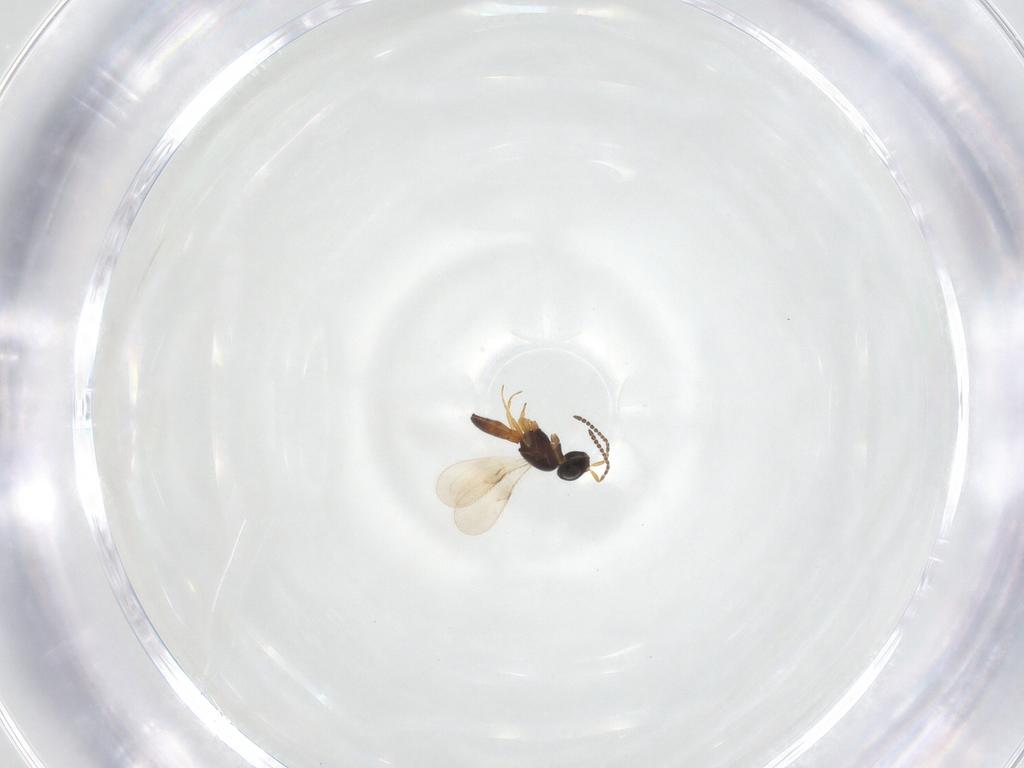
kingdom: Animalia
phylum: Arthropoda
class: Insecta
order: Hymenoptera
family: Scelionidae
